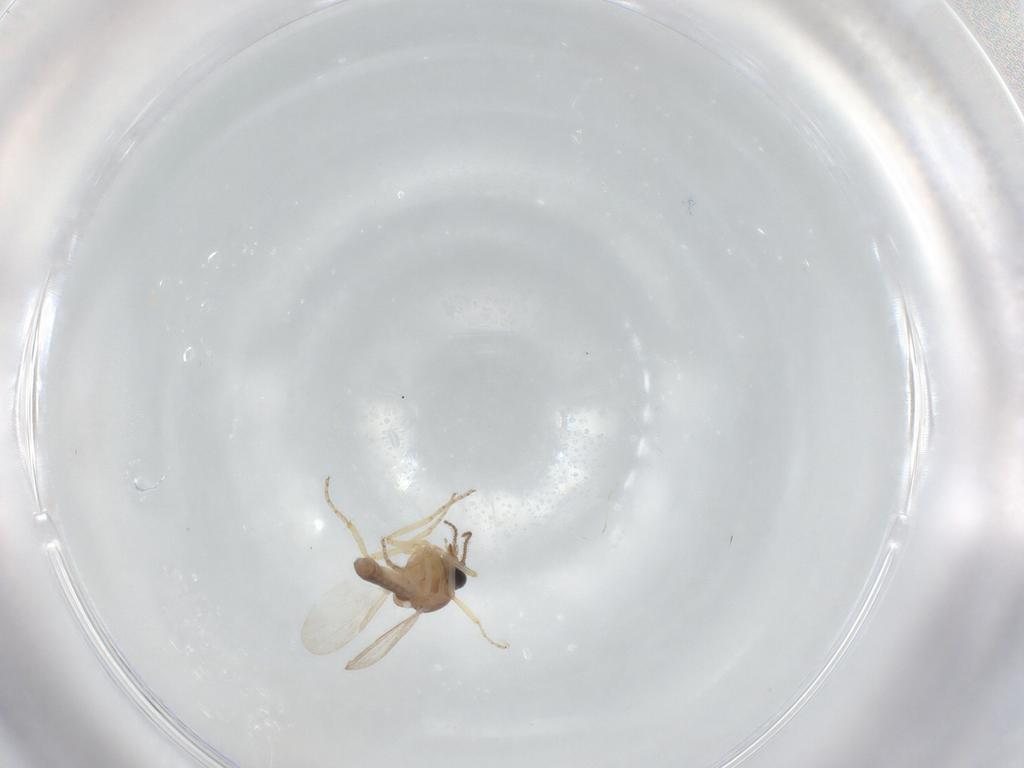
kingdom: Animalia
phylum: Arthropoda
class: Insecta
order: Diptera
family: Ceratopogonidae
